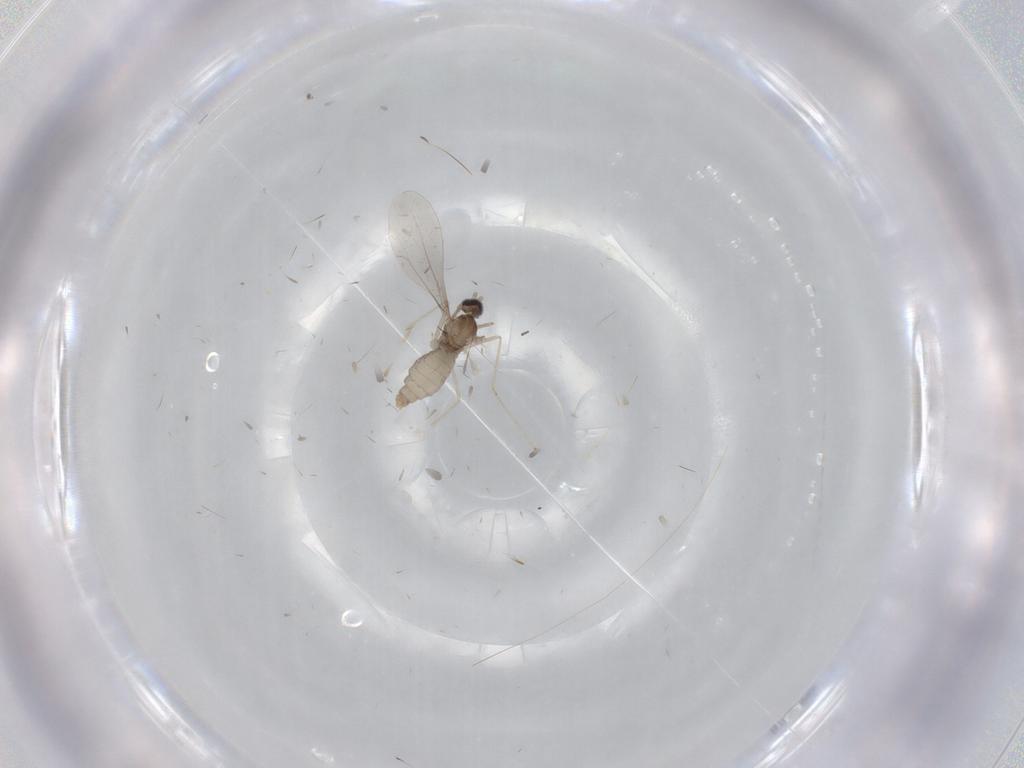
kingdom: Animalia
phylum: Arthropoda
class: Insecta
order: Diptera
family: Cecidomyiidae
